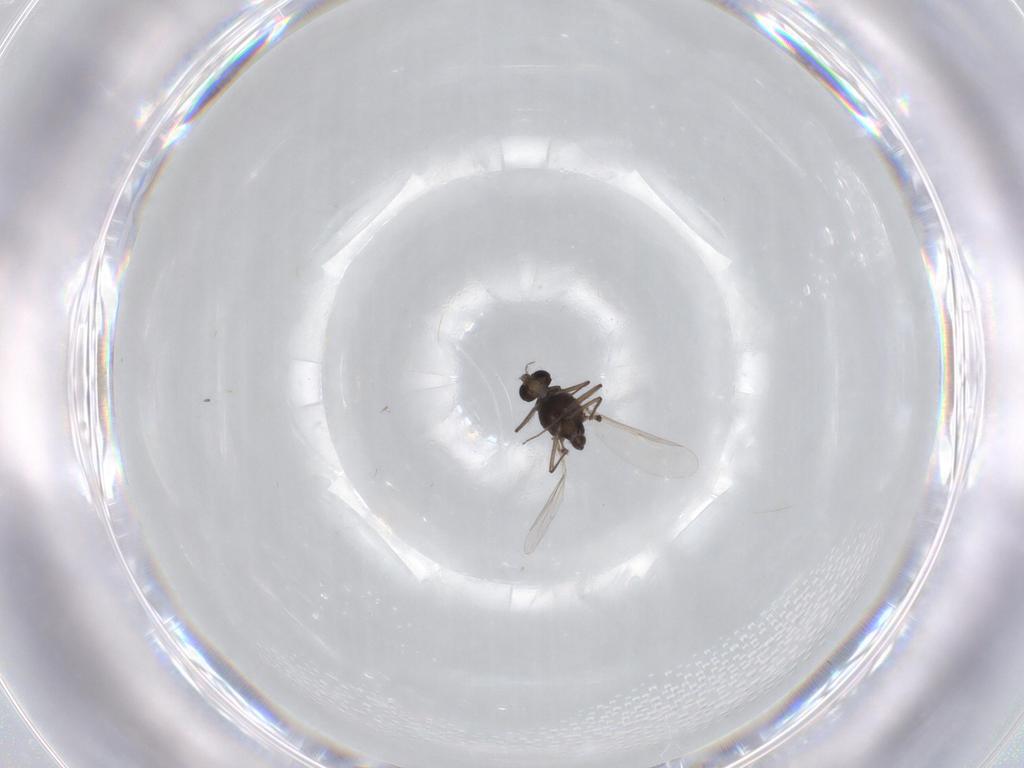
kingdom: Animalia
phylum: Arthropoda
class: Insecta
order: Diptera
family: Chironomidae
